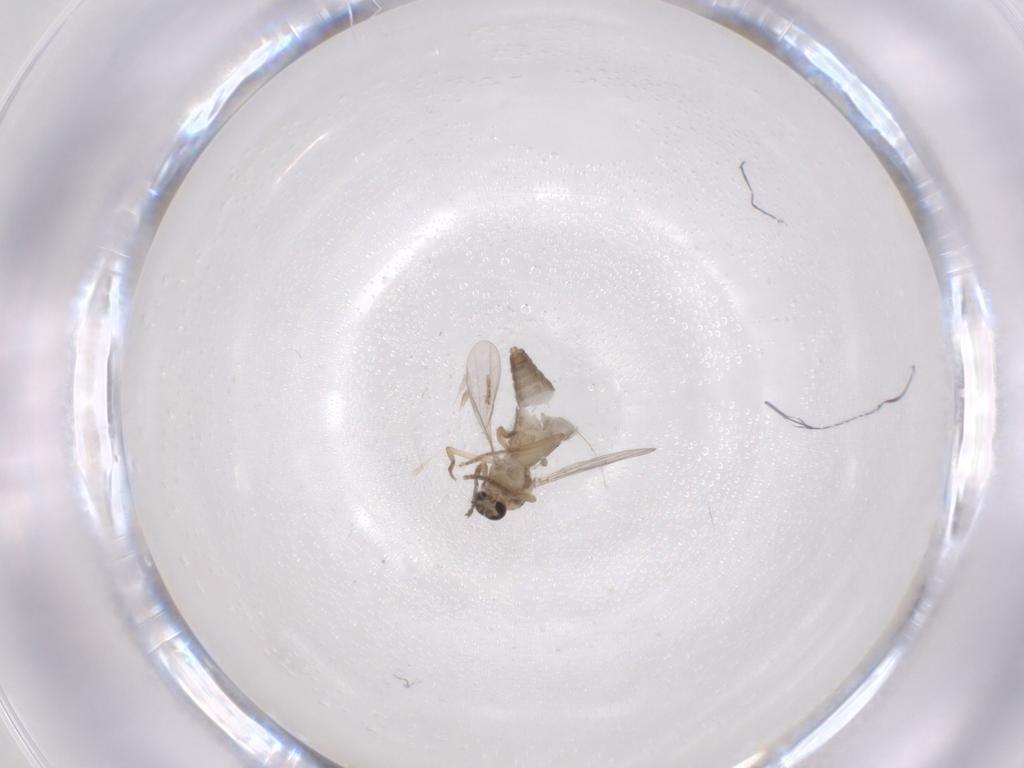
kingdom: Animalia
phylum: Arthropoda
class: Insecta
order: Diptera
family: Ceratopogonidae
